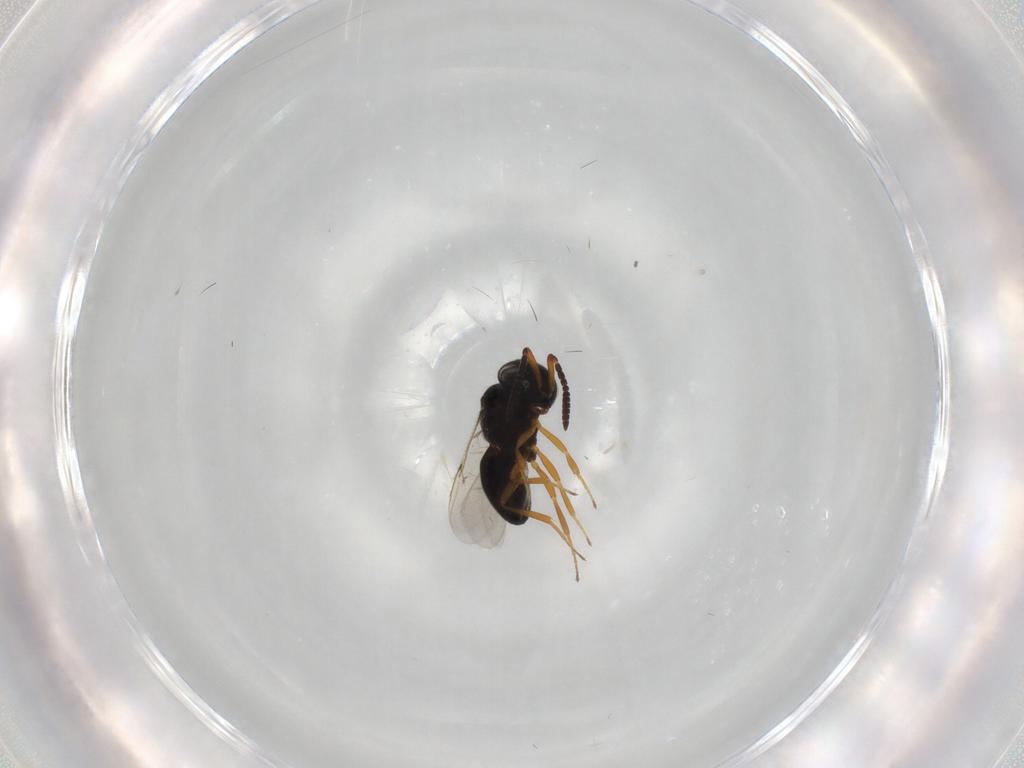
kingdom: Animalia
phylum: Arthropoda
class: Insecta
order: Hymenoptera
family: Scelionidae
